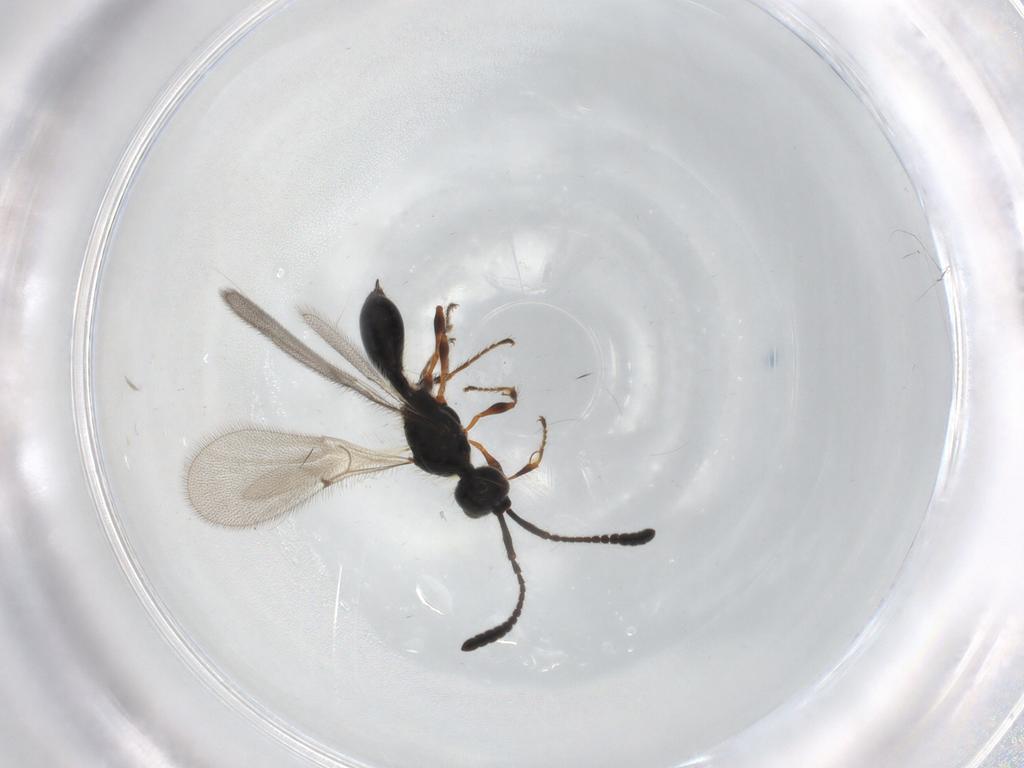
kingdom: Animalia
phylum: Arthropoda
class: Insecta
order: Hymenoptera
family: Diapriidae
